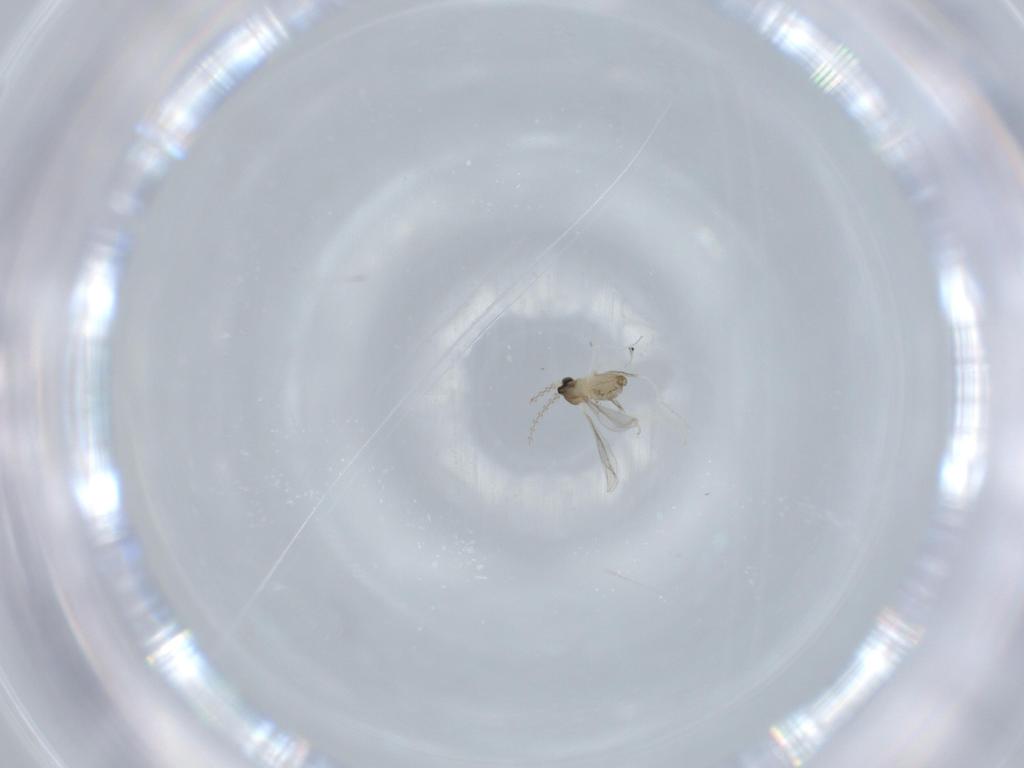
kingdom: Animalia
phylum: Arthropoda
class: Insecta
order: Diptera
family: Cecidomyiidae
